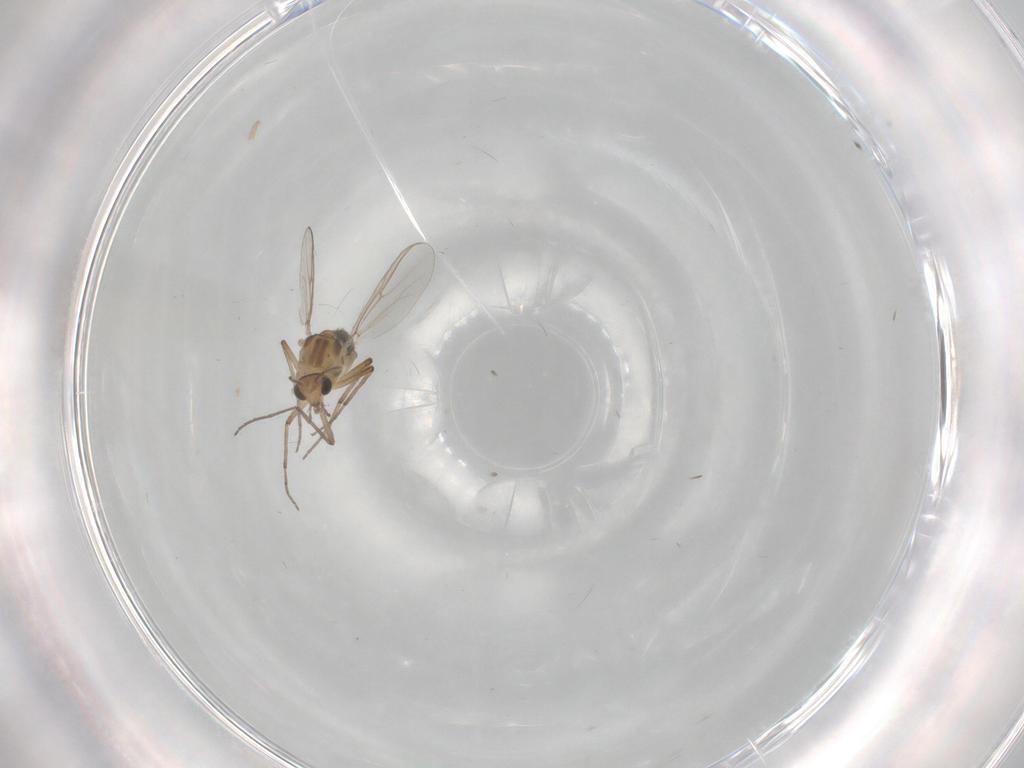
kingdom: Animalia
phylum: Arthropoda
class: Insecta
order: Diptera
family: Chironomidae
